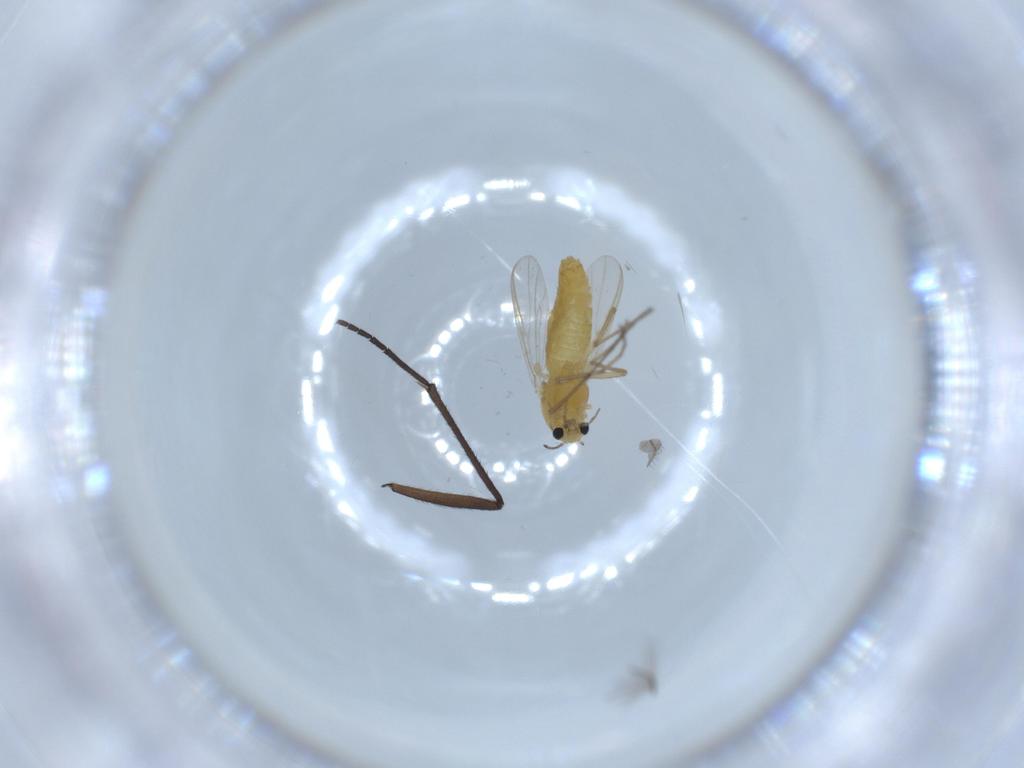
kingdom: Animalia
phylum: Arthropoda
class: Insecta
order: Diptera
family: Chironomidae
